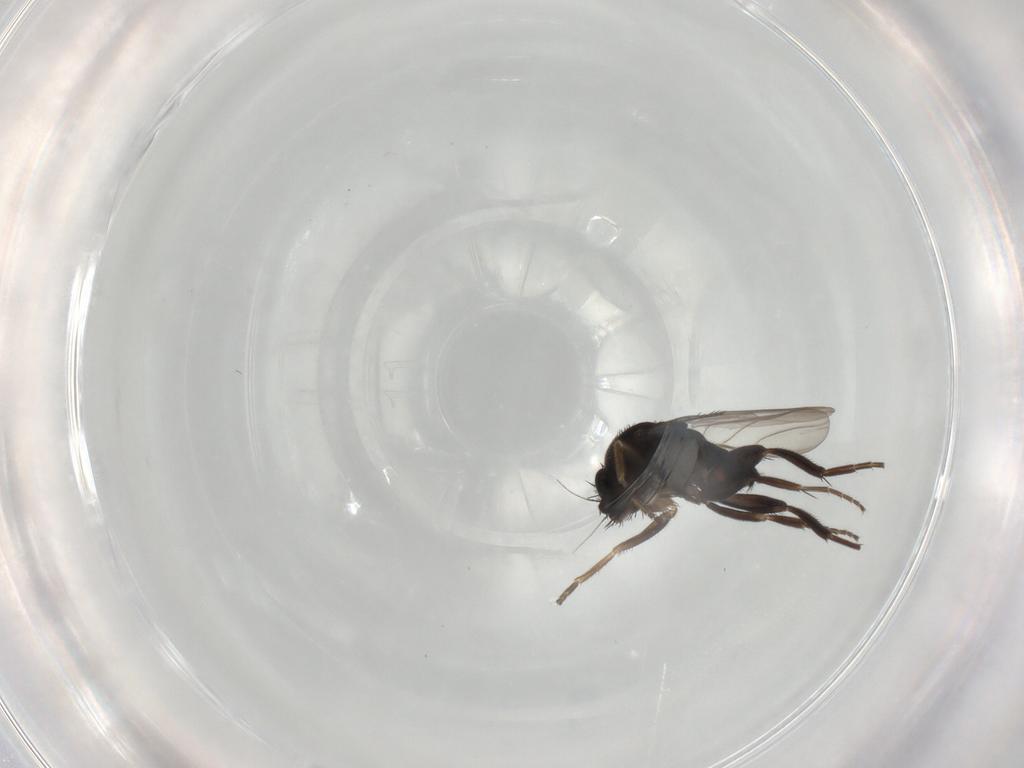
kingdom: Animalia
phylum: Arthropoda
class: Insecta
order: Diptera
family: Phoridae
